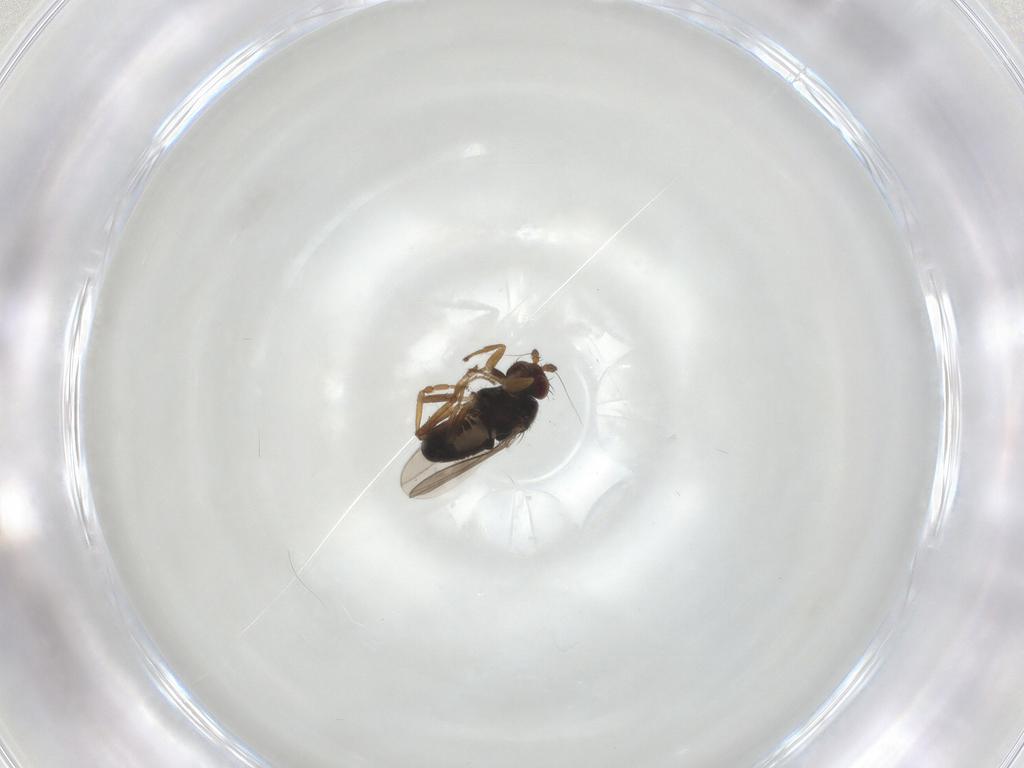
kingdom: Animalia
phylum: Arthropoda
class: Insecta
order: Diptera
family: Sphaeroceridae
